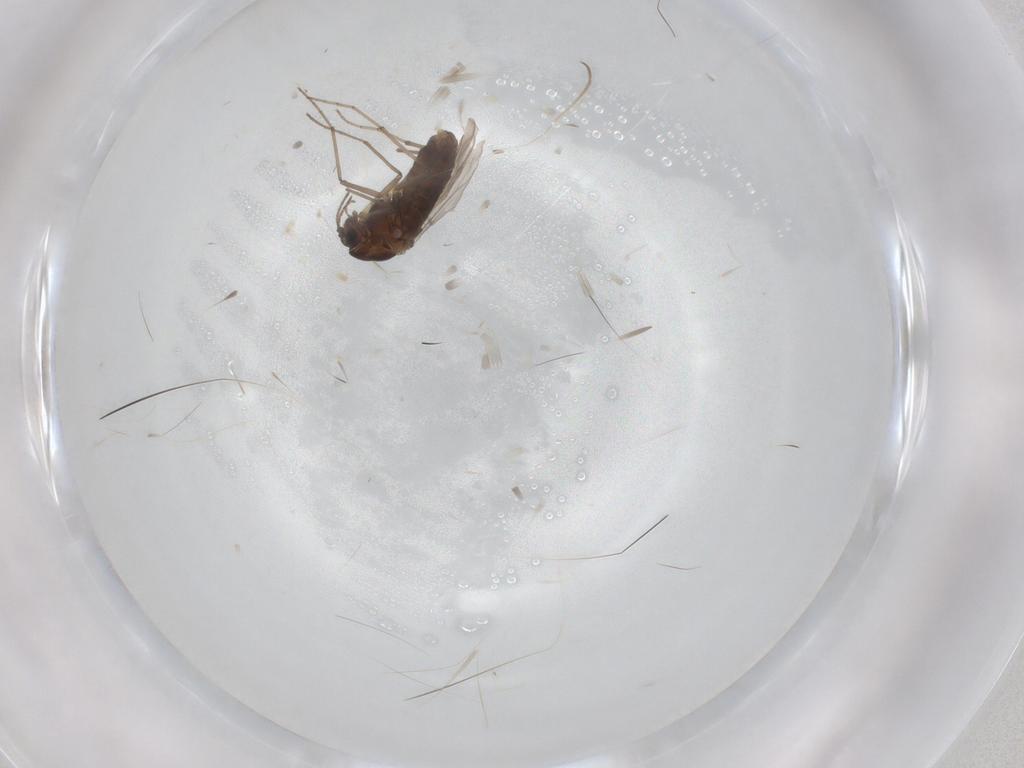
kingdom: Animalia
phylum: Arthropoda
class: Insecta
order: Diptera
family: Chironomidae
